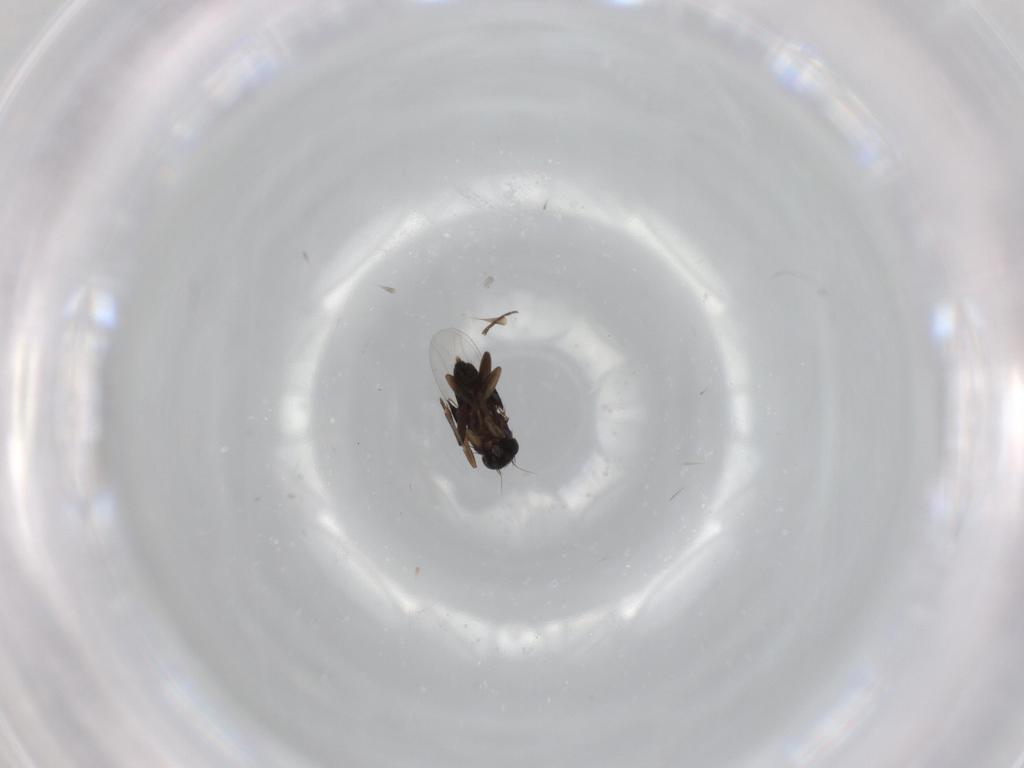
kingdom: Animalia
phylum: Arthropoda
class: Insecta
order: Diptera
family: Phoridae
